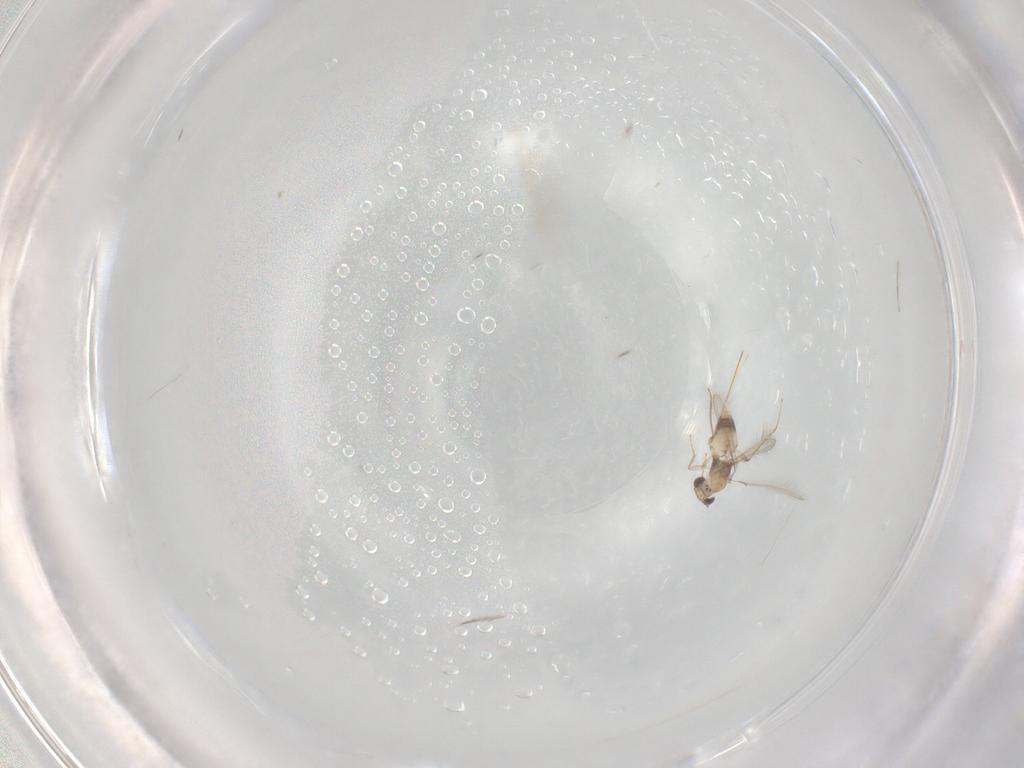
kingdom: Animalia
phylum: Arthropoda
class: Insecta
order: Hymenoptera
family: Mymaridae
